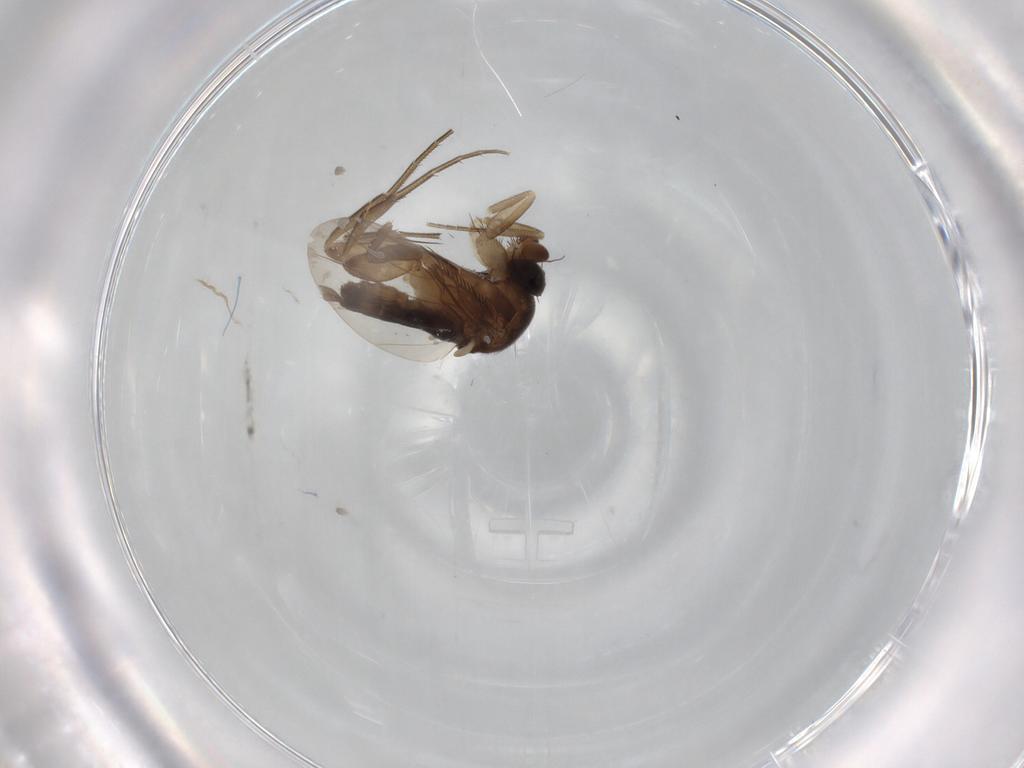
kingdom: Animalia
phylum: Arthropoda
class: Insecta
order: Diptera
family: Phoridae
